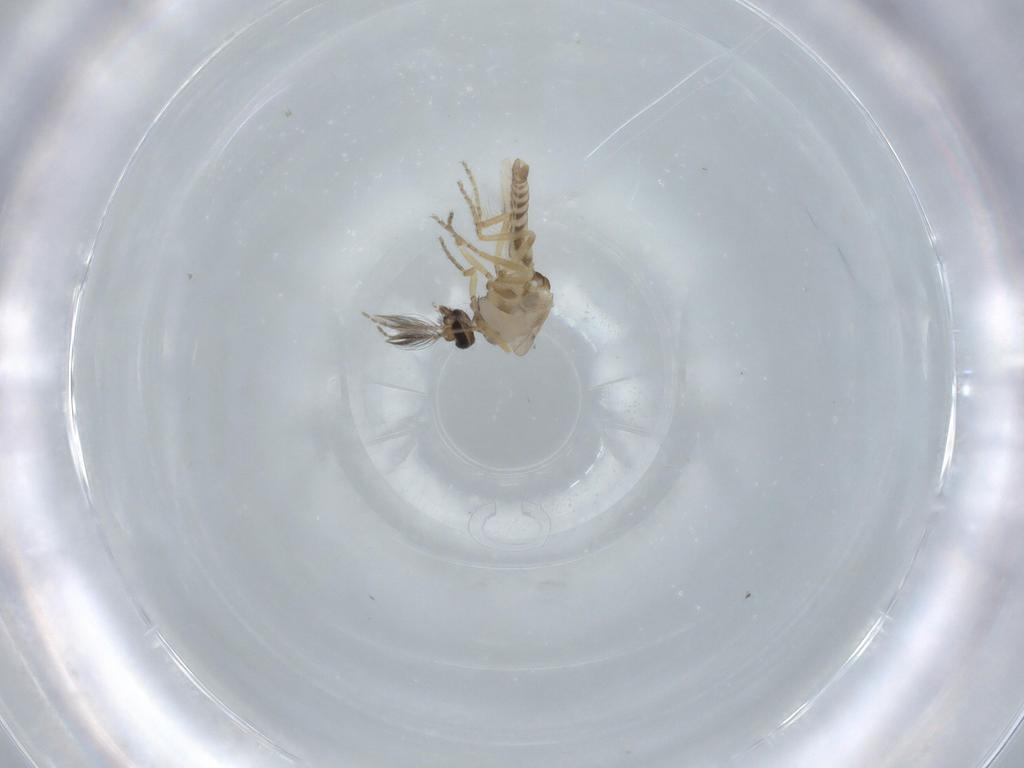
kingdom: Animalia
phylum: Arthropoda
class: Insecta
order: Diptera
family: Ceratopogonidae
